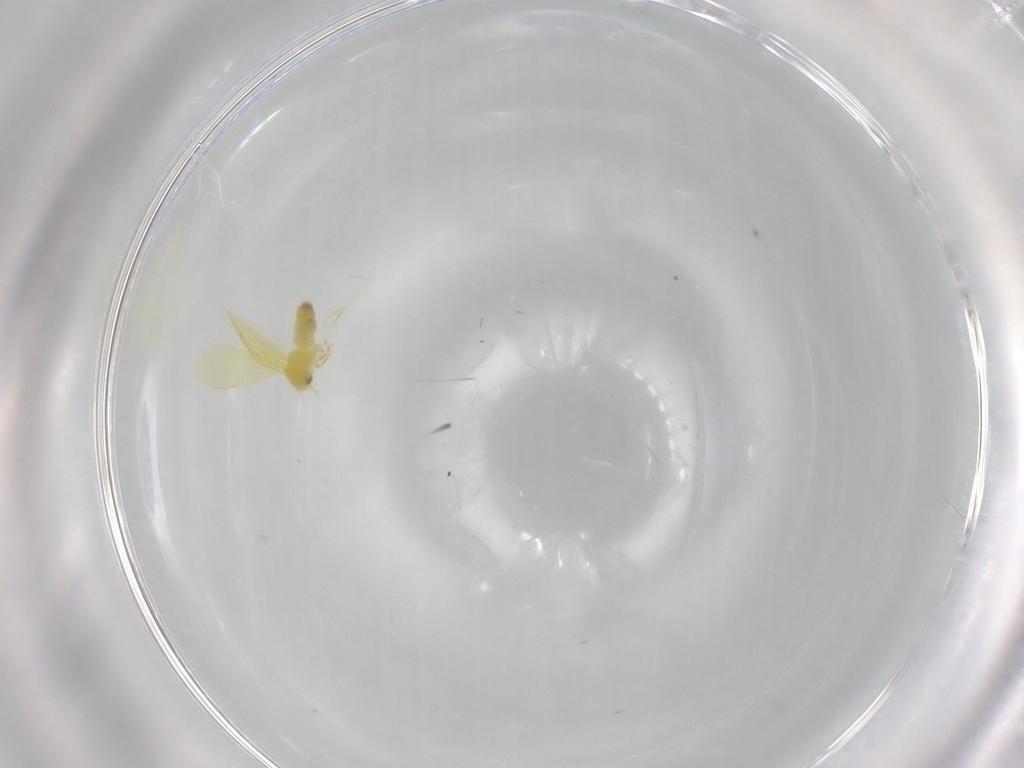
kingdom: Animalia
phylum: Arthropoda
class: Insecta
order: Hemiptera
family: Aleyrodidae
